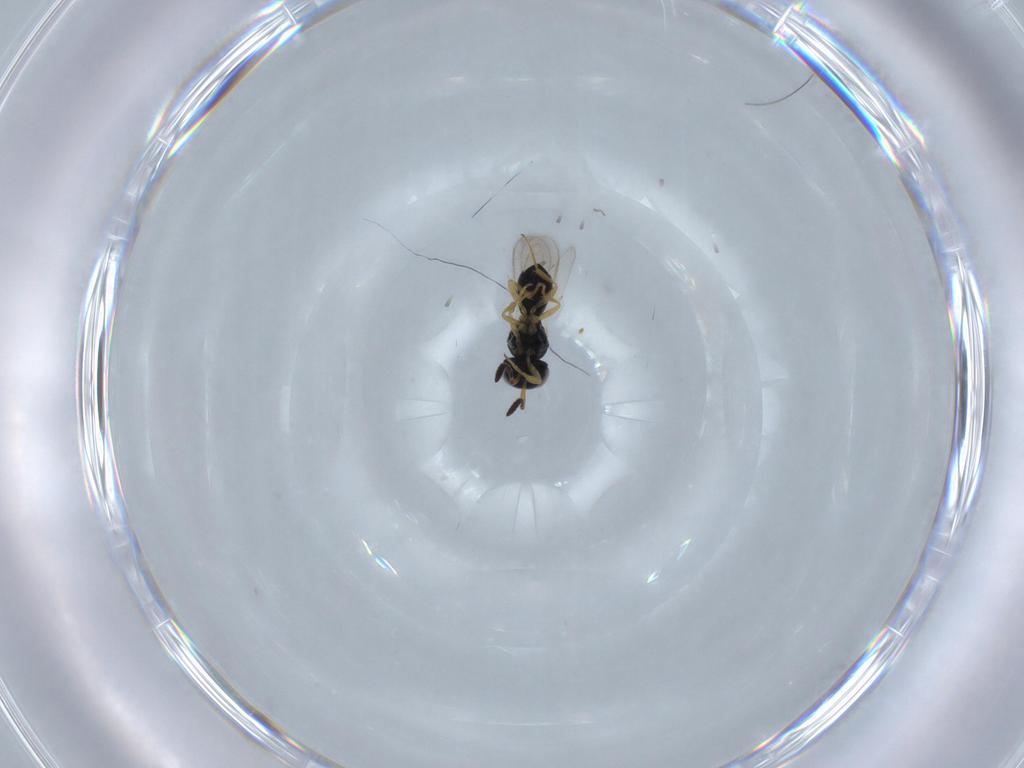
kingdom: Animalia
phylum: Arthropoda
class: Insecta
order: Hymenoptera
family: Scelionidae
